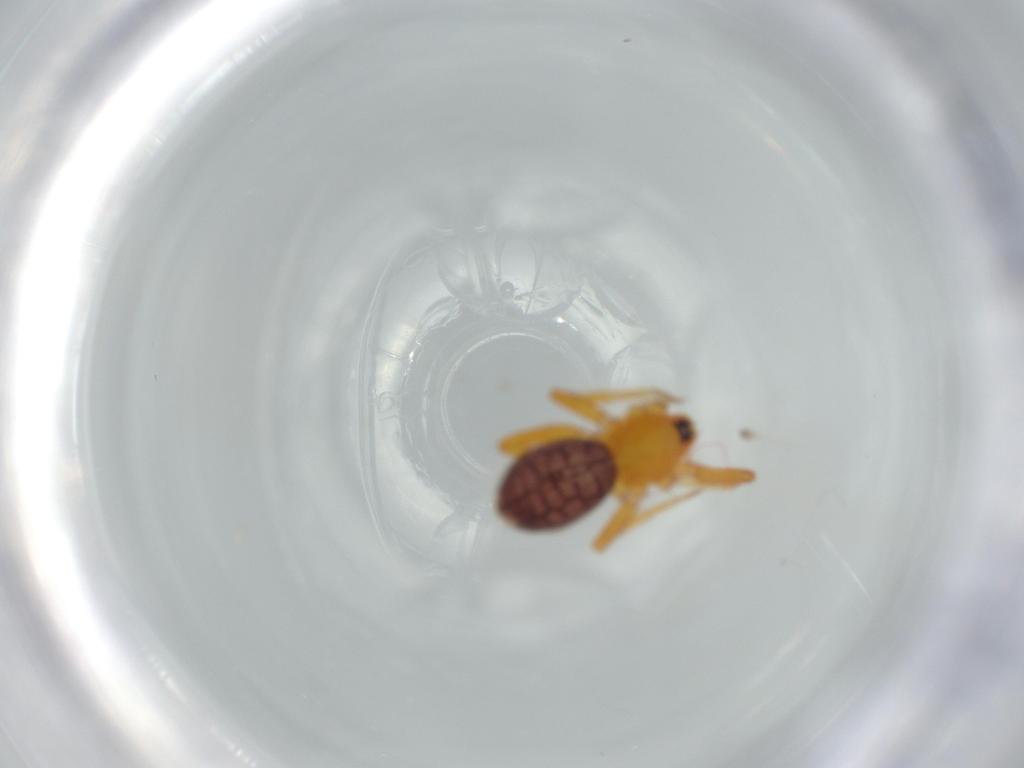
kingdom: Animalia
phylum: Arthropoda
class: Arachnida
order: Araneae
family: Oonopidae
